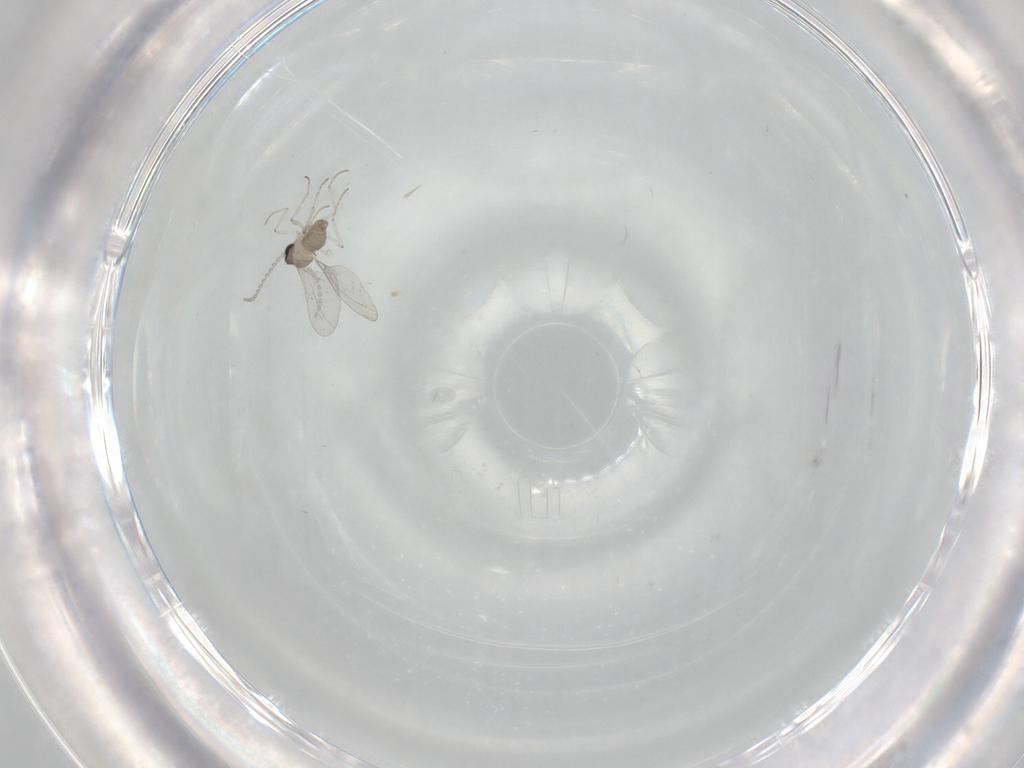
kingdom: Animalia
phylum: Arthropoda
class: Insecta
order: Diptera
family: Cecidomyiidae
